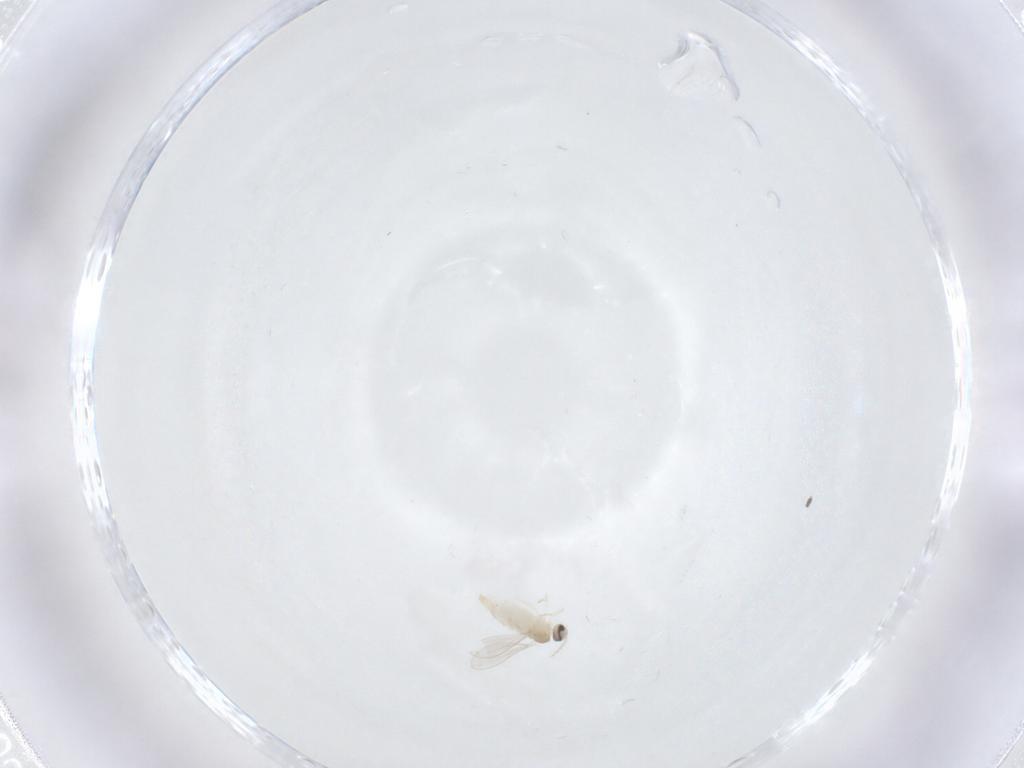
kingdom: Animalia
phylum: Arthropoda
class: Insecta
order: Diptera
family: Cecidomyiidae
